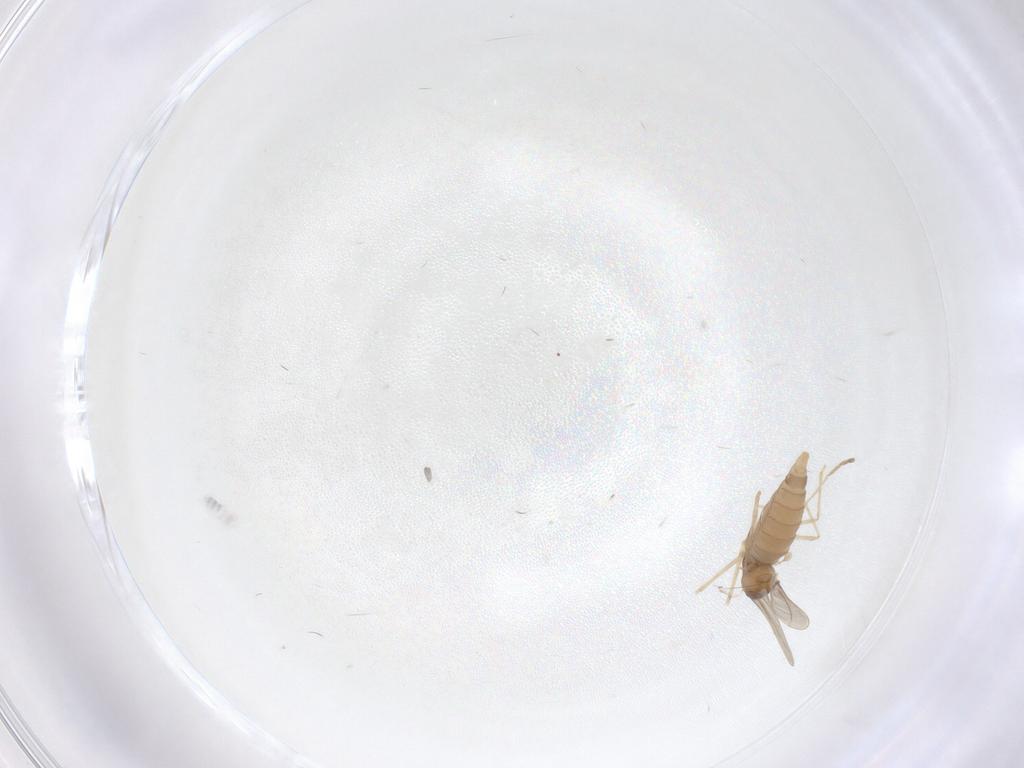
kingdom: Animalia
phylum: Arthropoda
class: Insecta
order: Diptera
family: Cecidomyiidae
